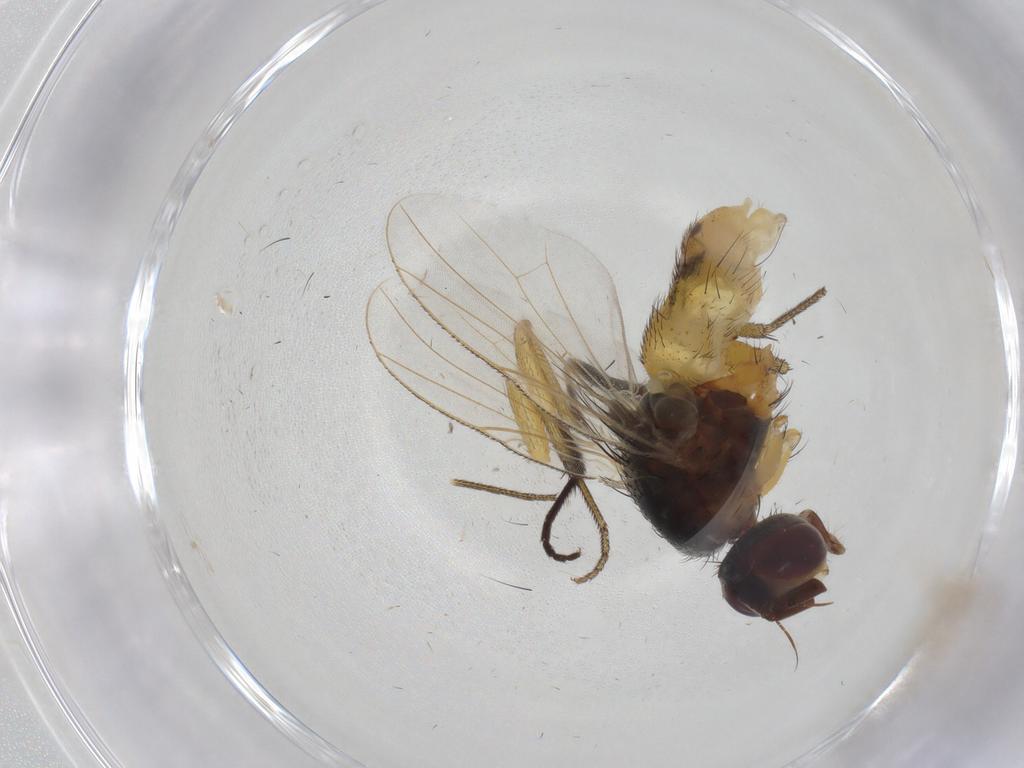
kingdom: Animalia
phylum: Arthropoda
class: Insecta
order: Diptera
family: Muscidae
